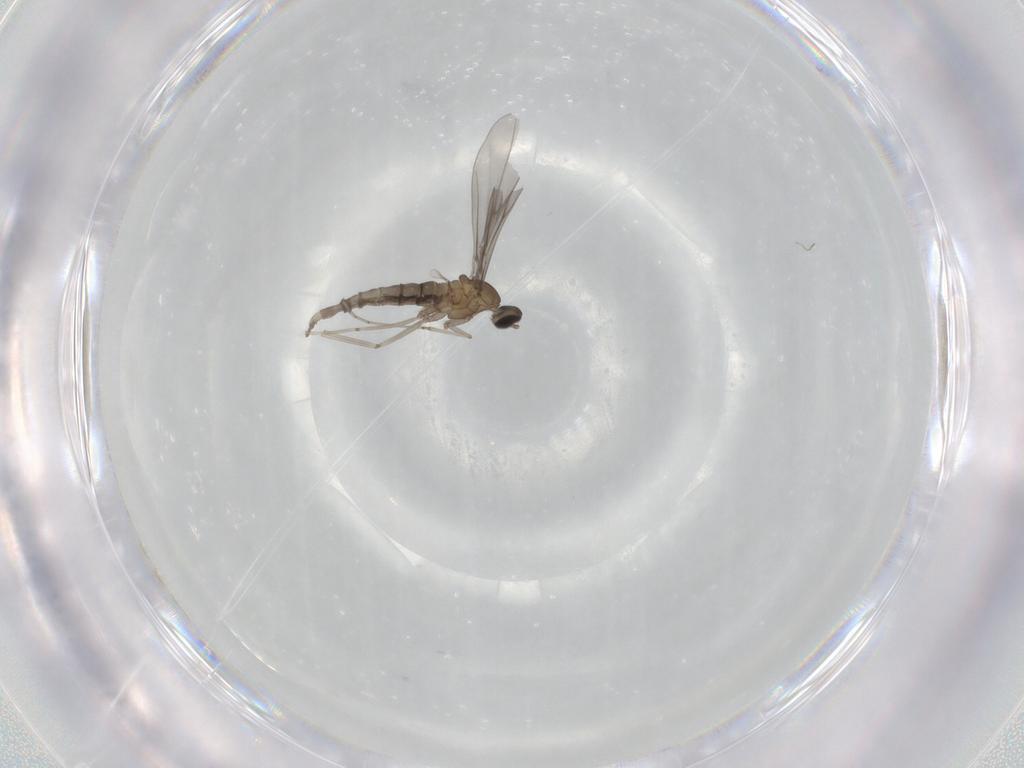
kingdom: Animalia
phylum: Arthropoda
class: Insecta
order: Diptera
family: Cecidomyiidae
